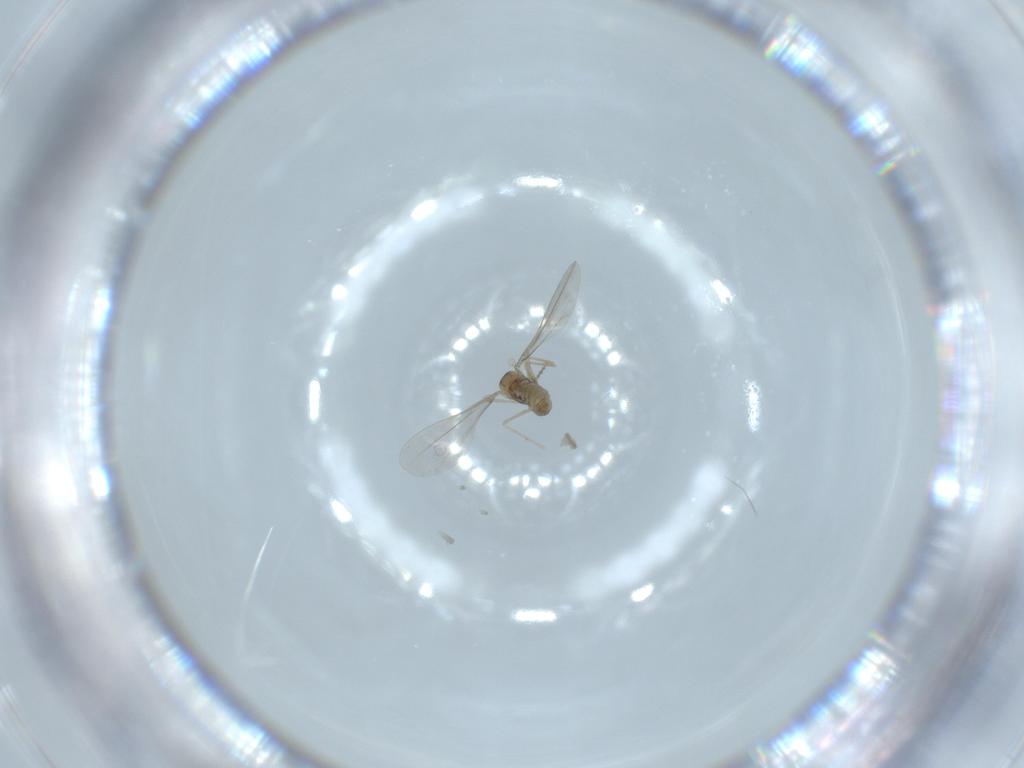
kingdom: Animalia
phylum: Arthropoda
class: Insecta
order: Diptera
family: Cecidomyiidae
